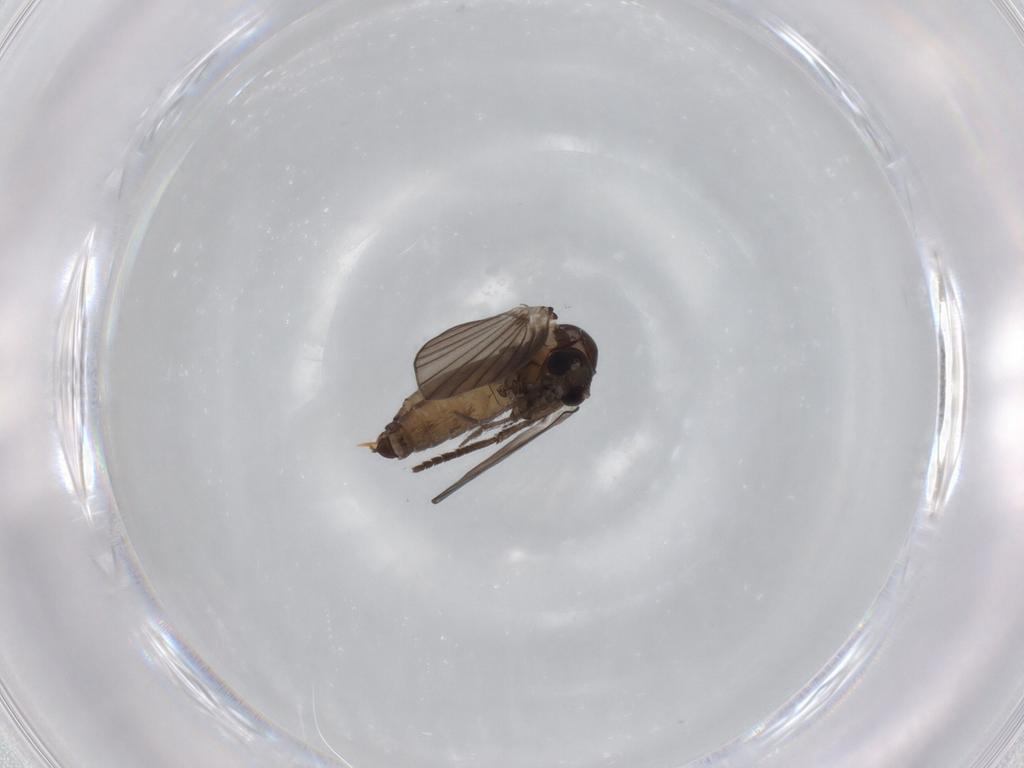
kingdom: Animalia
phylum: Arthropoda
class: Insecta
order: Diptera
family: Psychodidae
